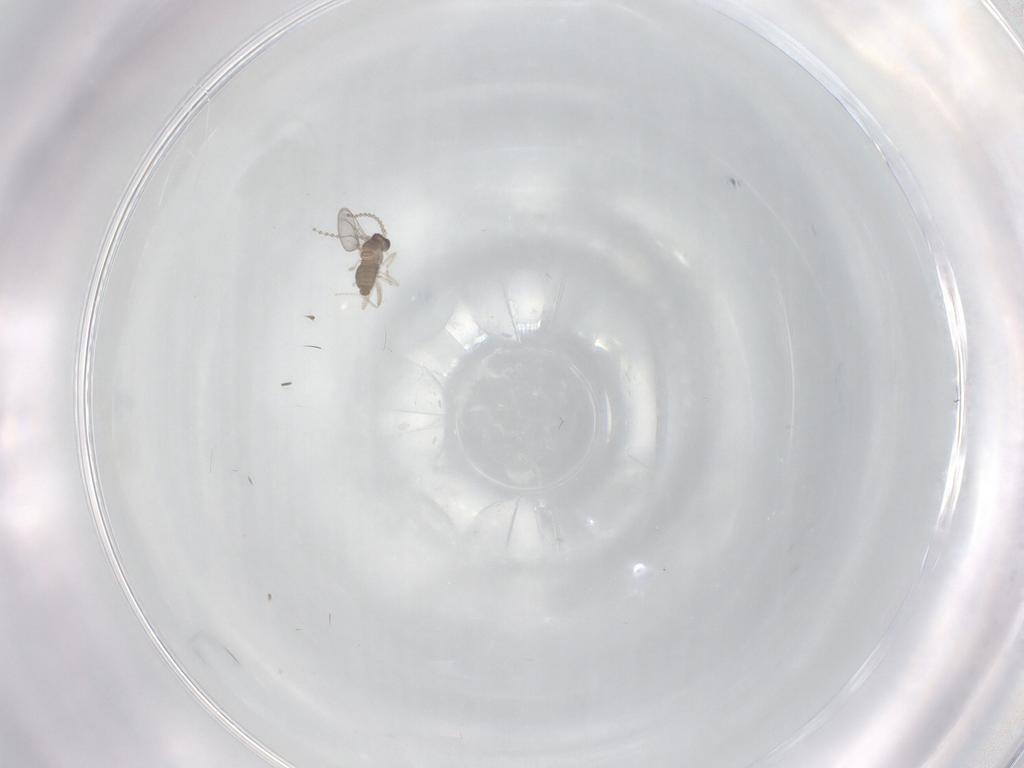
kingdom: Animalia
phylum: Arthropoda
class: Insecta
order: Diptera
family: Cecidomyiidae
